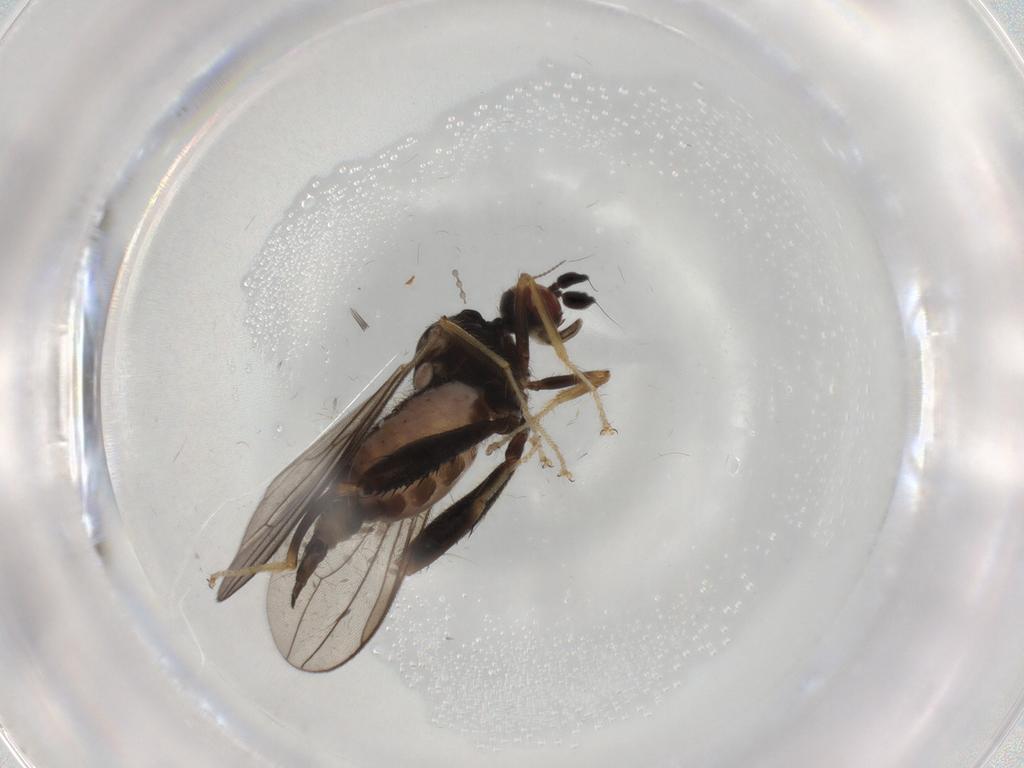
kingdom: Animalia
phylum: Arthropoda
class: Insecta
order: Diptera
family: Hybotidae
